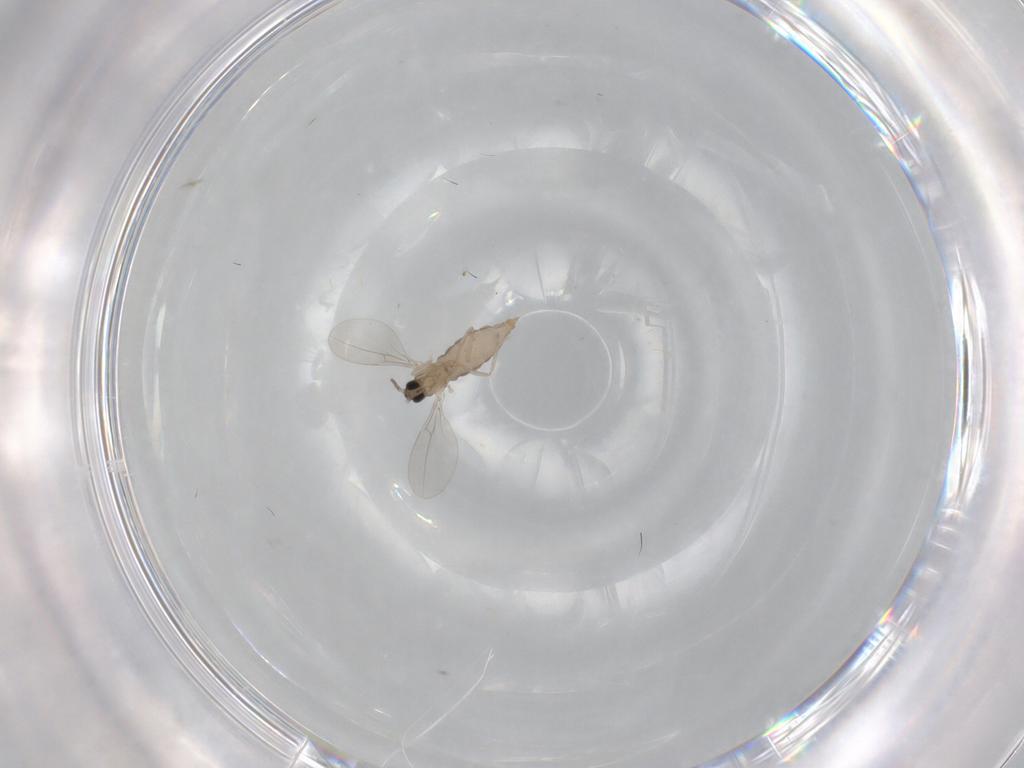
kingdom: Animalia
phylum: Arthropoda
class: Insecta
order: Diptera
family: Cecidomyiidae
